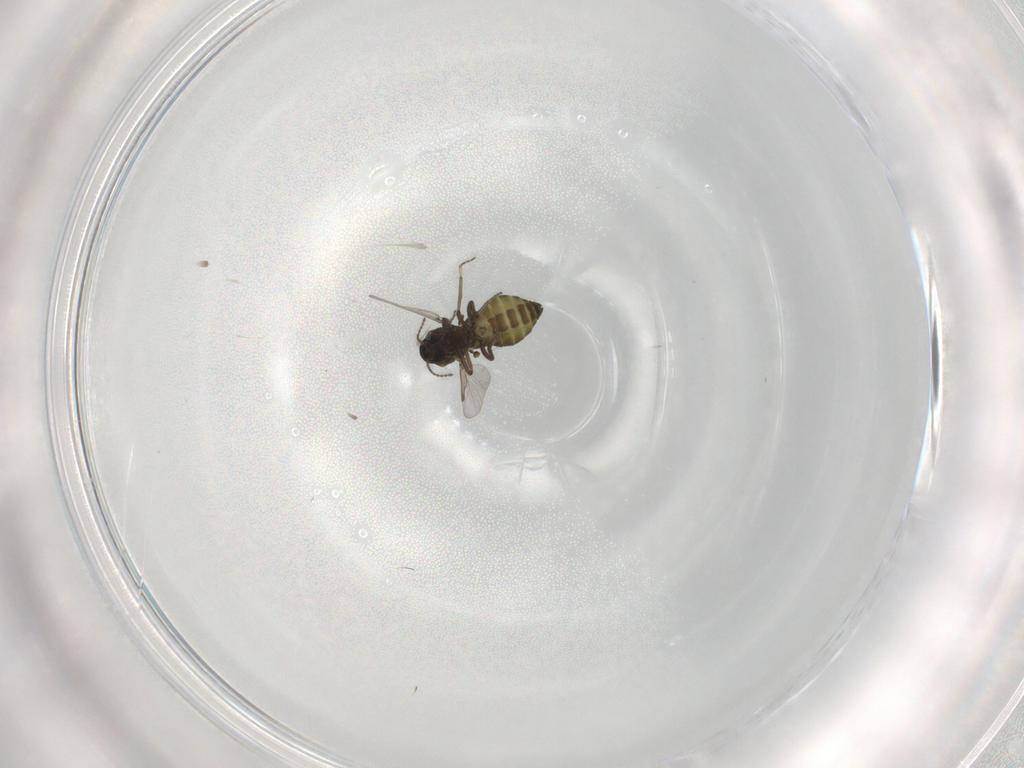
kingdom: Animalia
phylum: Arthropoda
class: Insecta
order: Diptera
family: Ceratopogonidae
